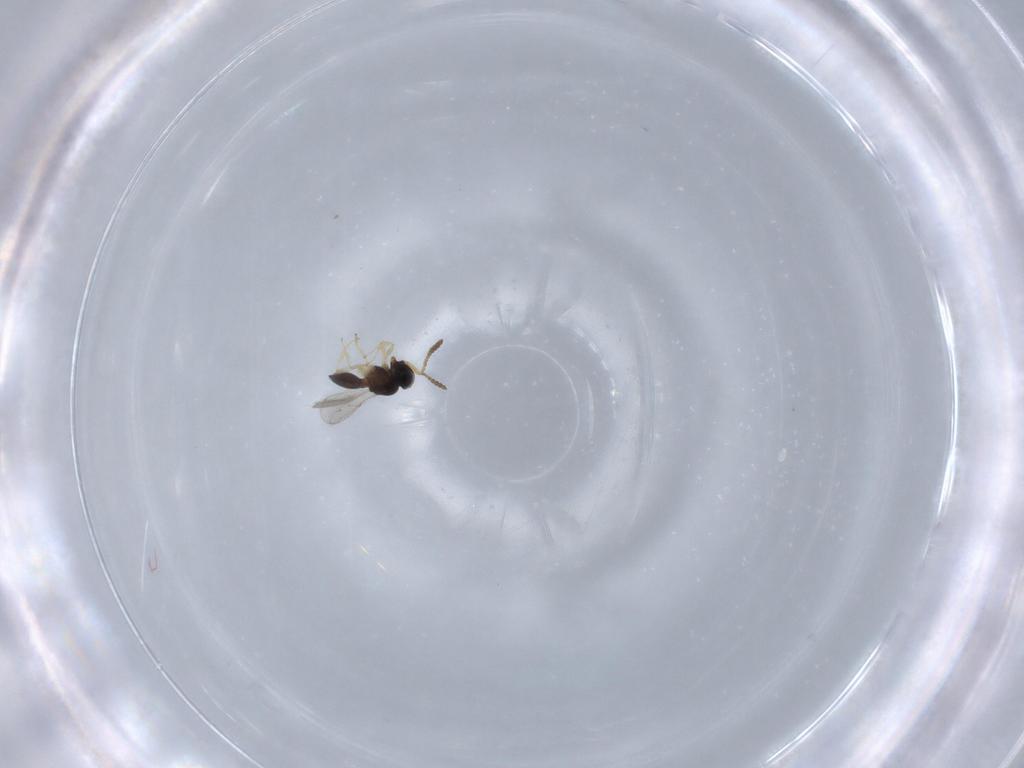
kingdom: Animalia
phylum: Arthropoda
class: Insecta
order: Hymenoptera
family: Scelionidae
